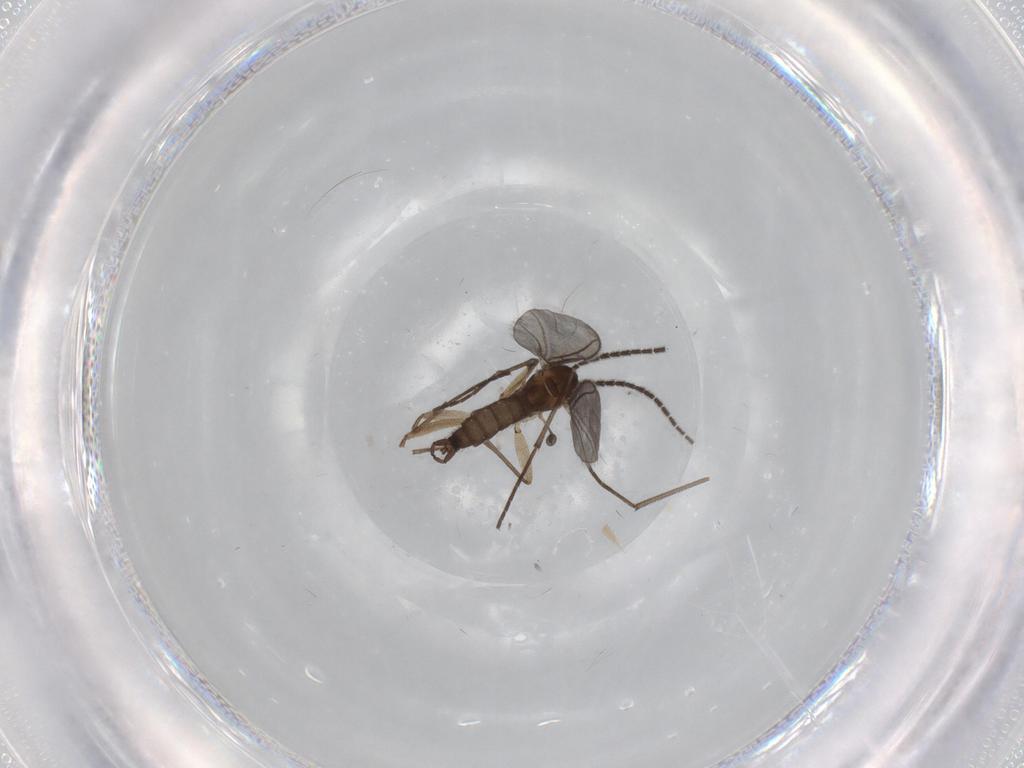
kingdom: Animalia
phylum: Arthropoda
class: Insecta
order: Diptera
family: Sciaridae
